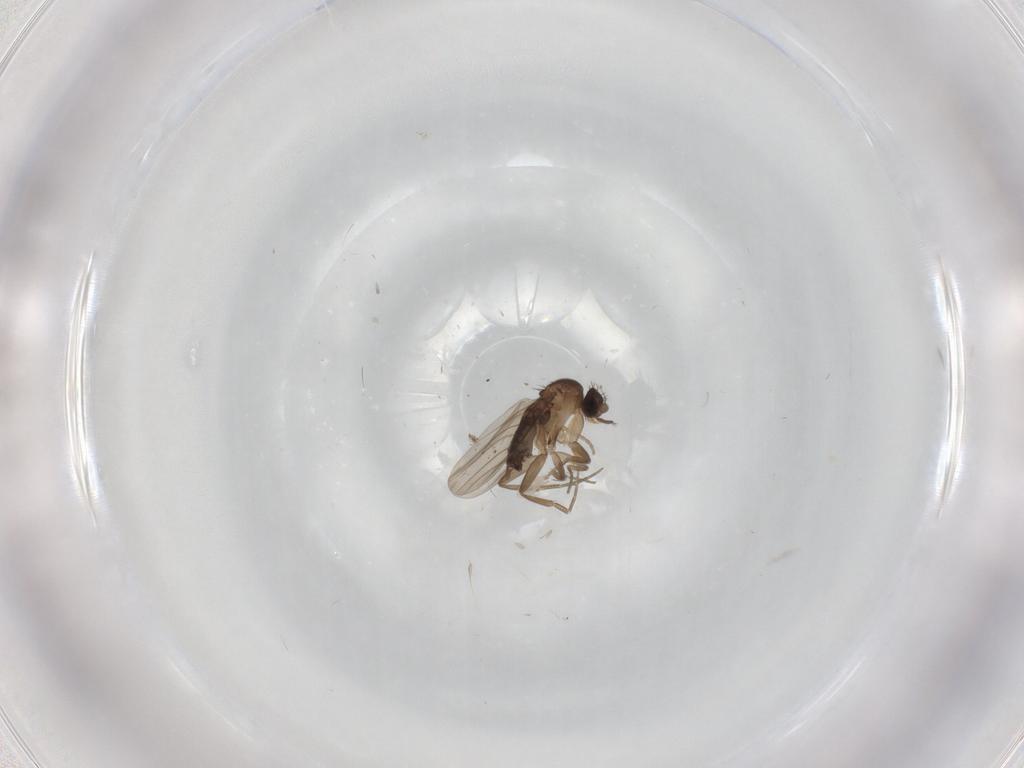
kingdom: Animalia
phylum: Arthropoda
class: Insecta
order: Diptera
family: Phoridae
